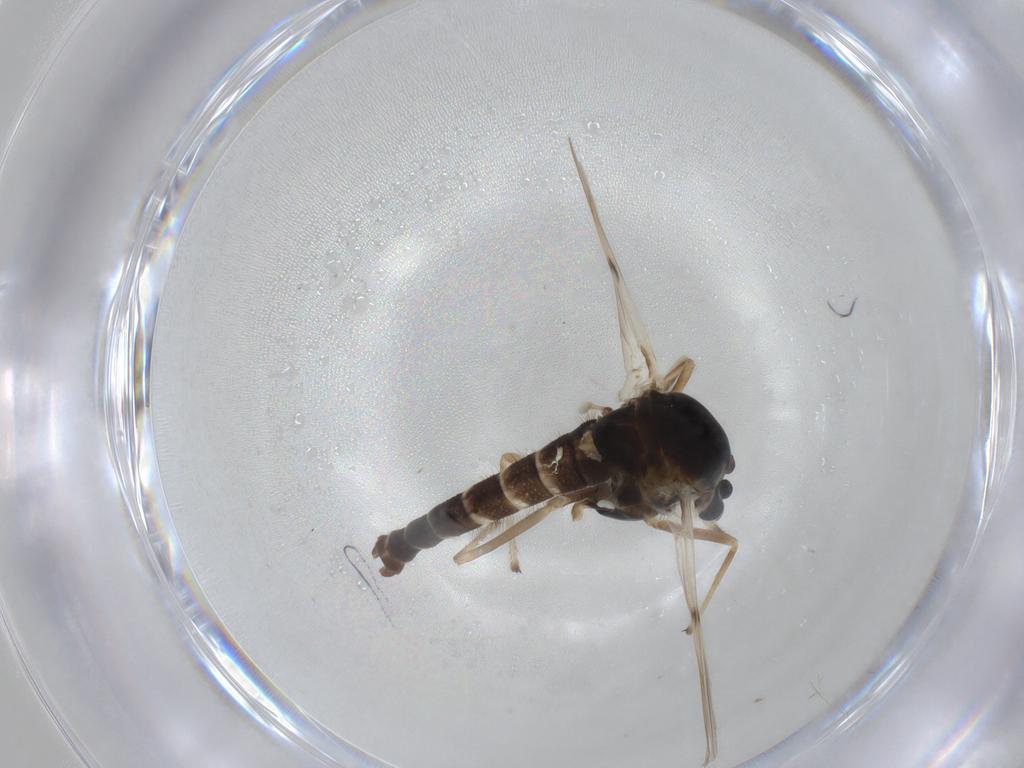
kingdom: Animalia
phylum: Arthropoda
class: Insecta
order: Diptera
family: Chironomidae
